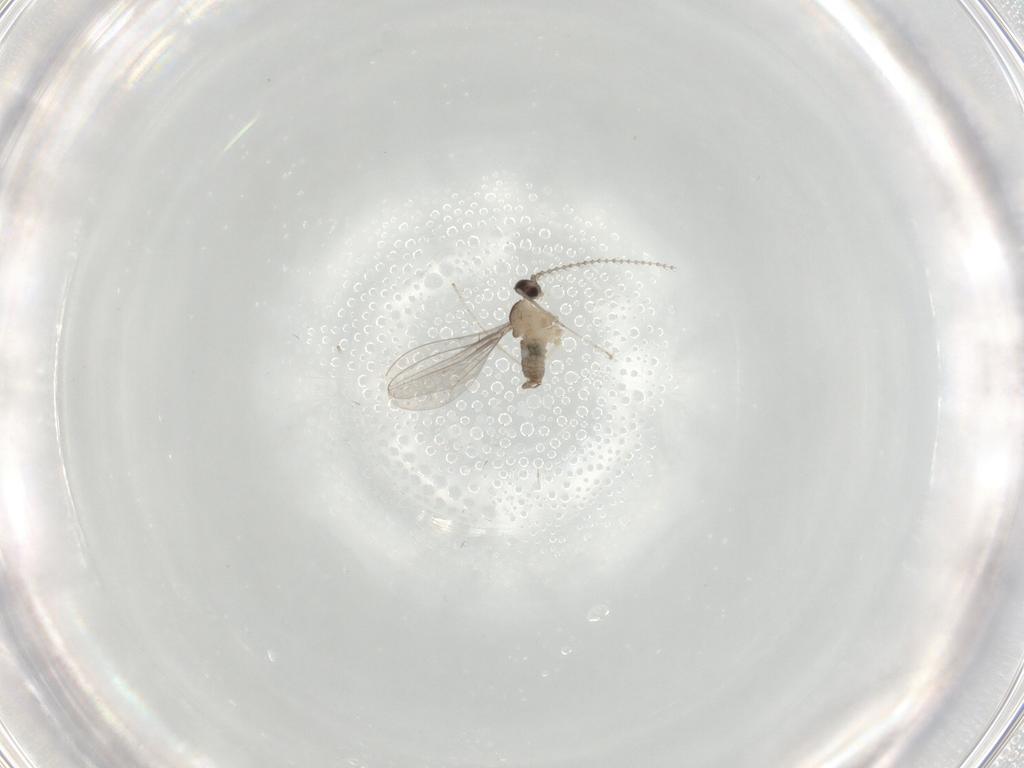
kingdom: Animalia
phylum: Arthropoda
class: Insecta
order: Diptera
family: Cecidomyiidae
